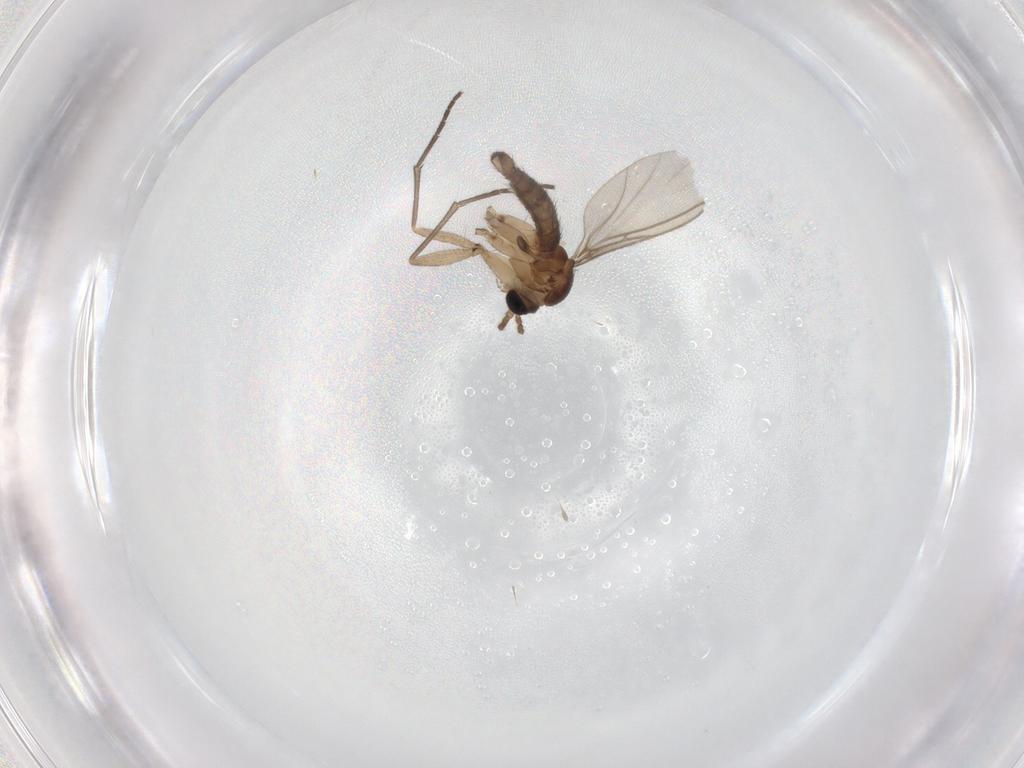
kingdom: Animalia
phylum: Arthropoda
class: Insecta
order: Diptera
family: Sciaridae
